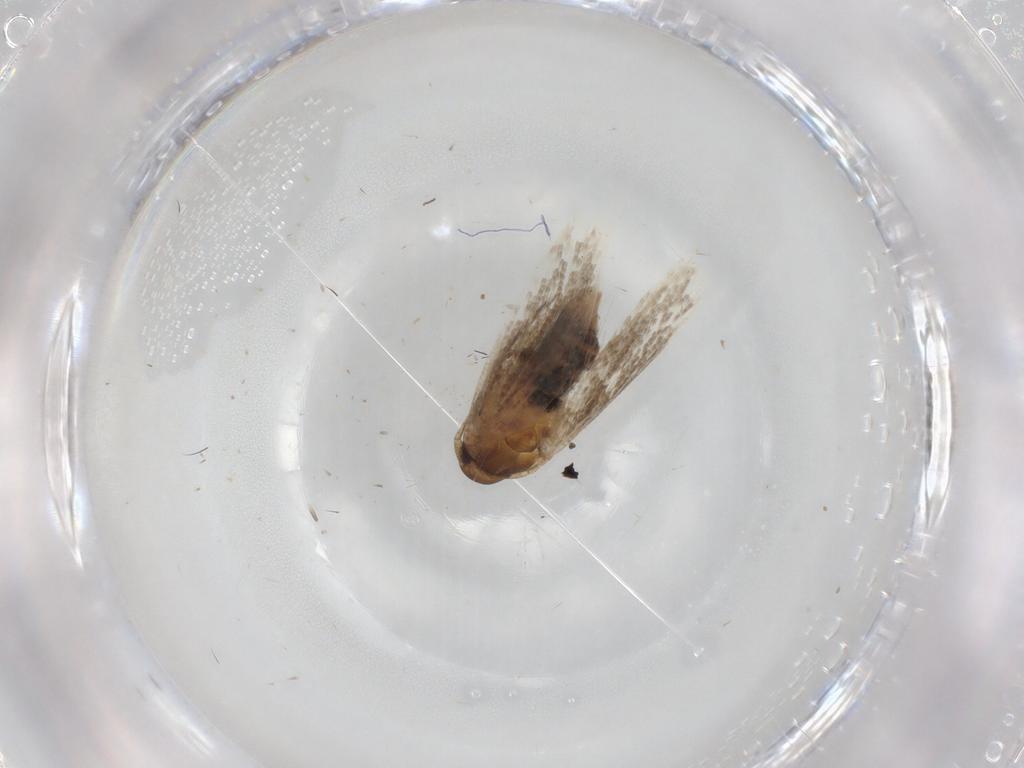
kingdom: Animalia
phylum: Arthropoda
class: Insecta
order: Lepidoptera
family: Cosmopterigidae
